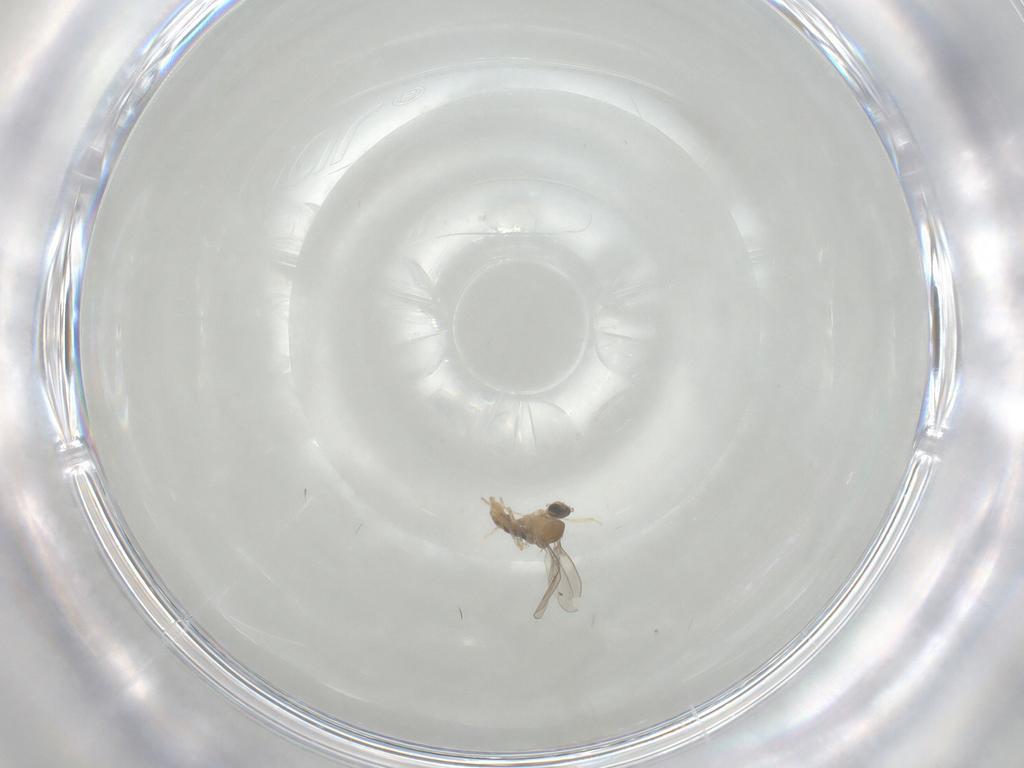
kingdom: Animalia
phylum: Arthropoda
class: Insecta
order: Diptera
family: Cecidomyiidae
